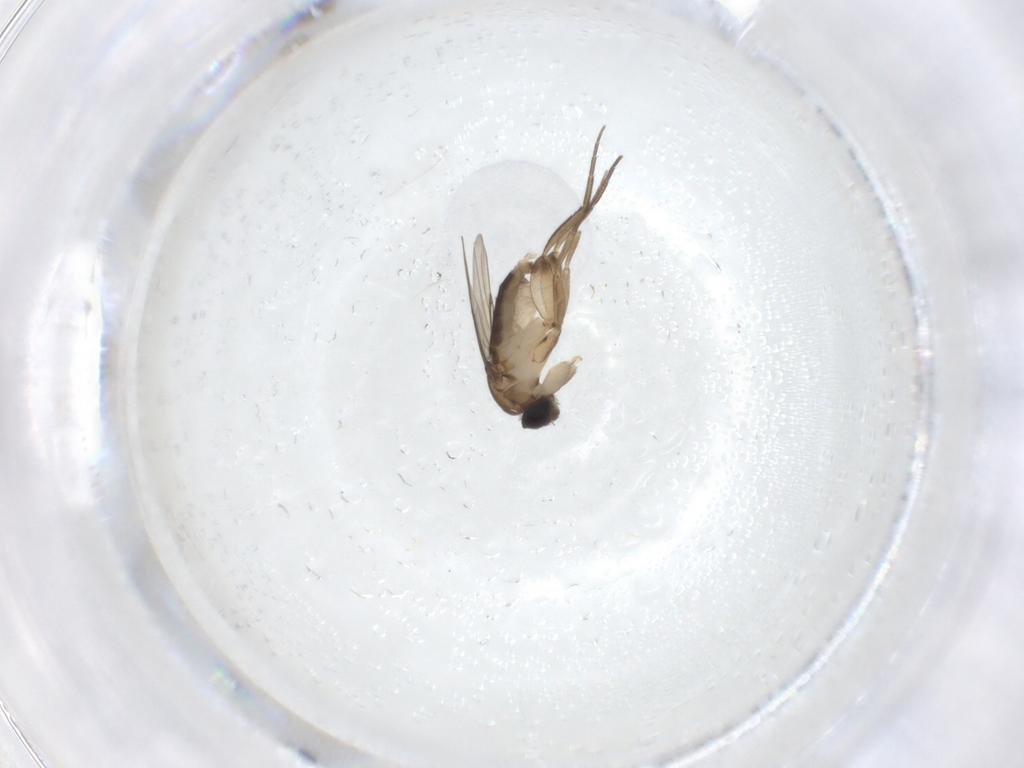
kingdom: Animalia
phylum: Arthropoda
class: Insecta
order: Diptera
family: Phoridae
